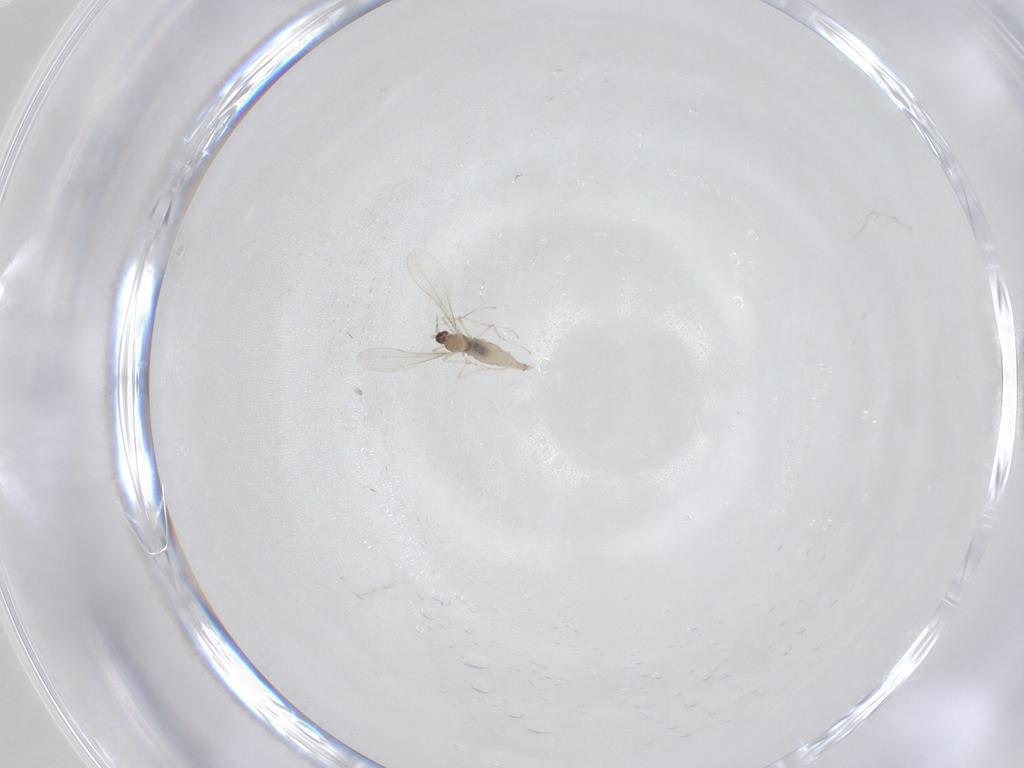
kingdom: Animalia
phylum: Arthropoda
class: Insecta
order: Diptera
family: Cecidomyiidae
